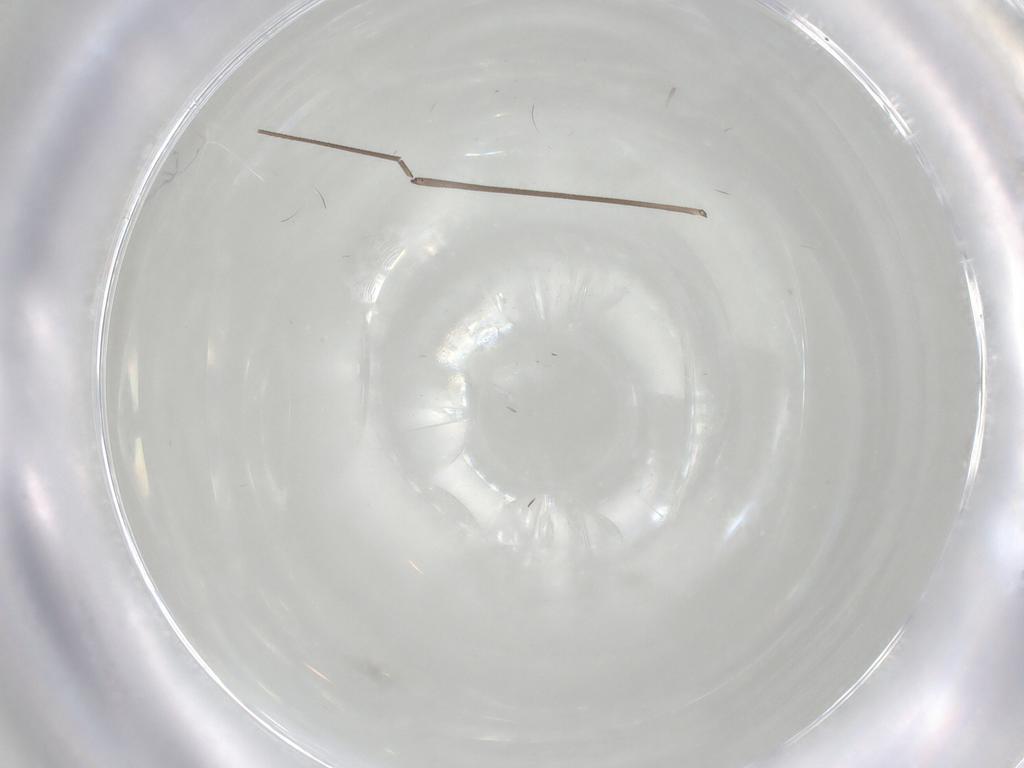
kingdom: Animalia
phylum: Arthropoda
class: Insecta
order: Diptera
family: Limoniidae
